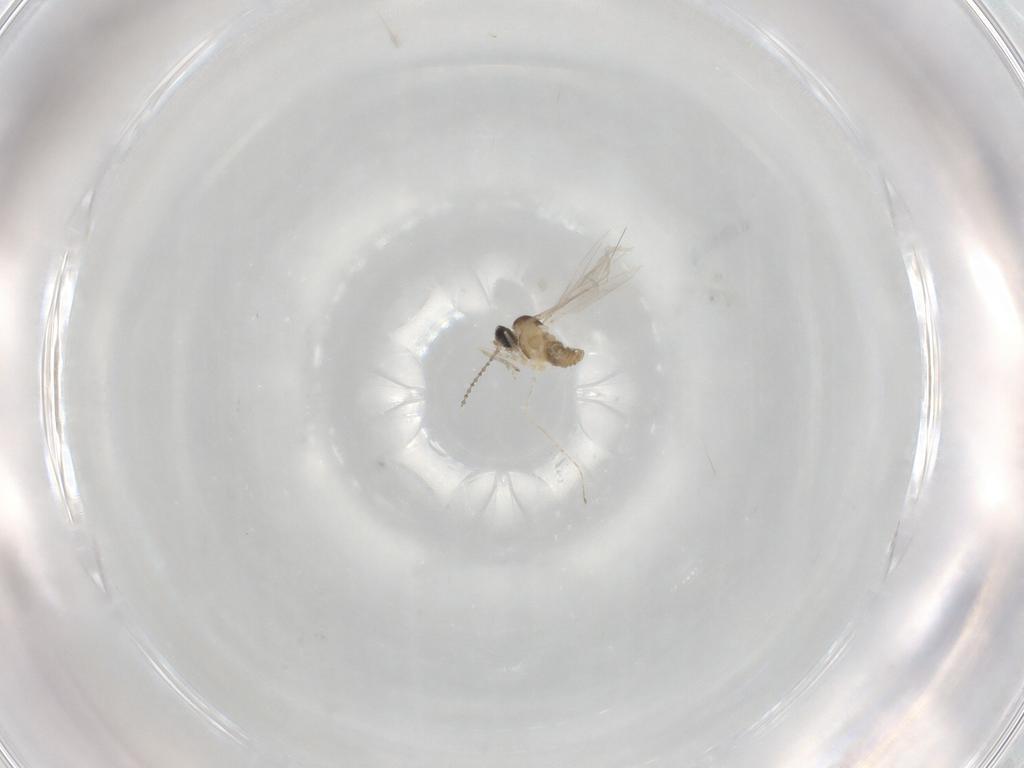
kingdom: Animalia
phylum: Arthropoda
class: Insecta
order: Diptera
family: Cecidomyiidae
